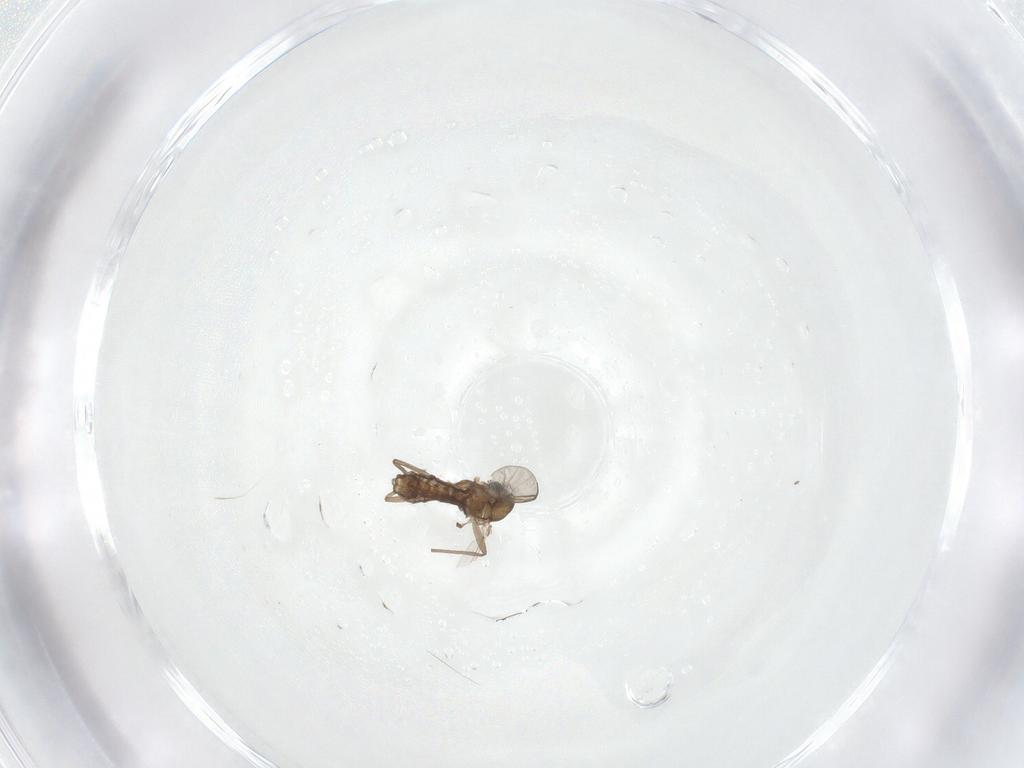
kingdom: Animalia
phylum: Arthropoda
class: Insecta
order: Diptera
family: Chironomidae
